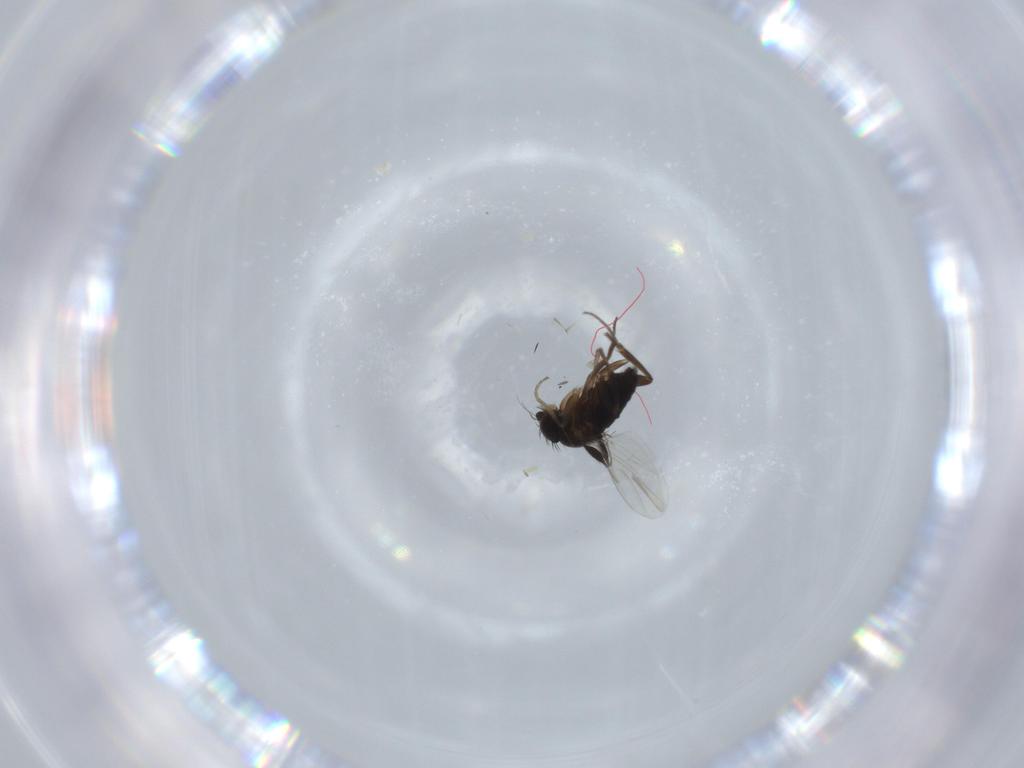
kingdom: Animalia
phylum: Arthropoda
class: Insecta
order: Diptera
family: Phoridae
